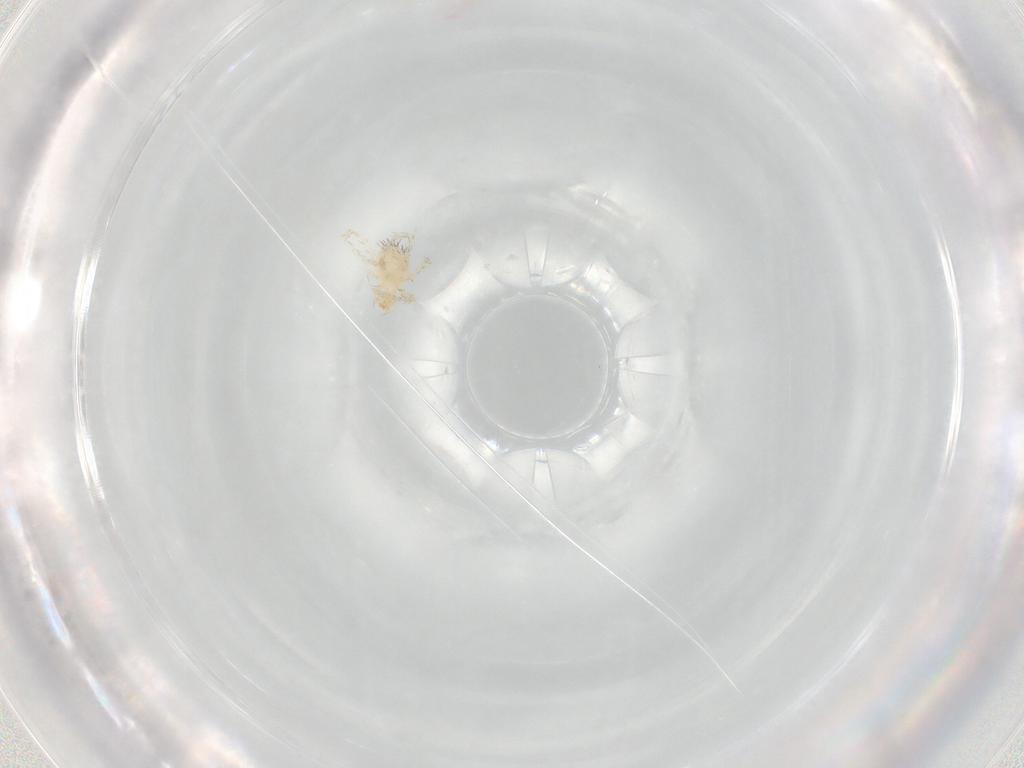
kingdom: Animalia
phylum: Arthropoda
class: Arachnida
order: Trombidiformes
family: Erythraeidae
